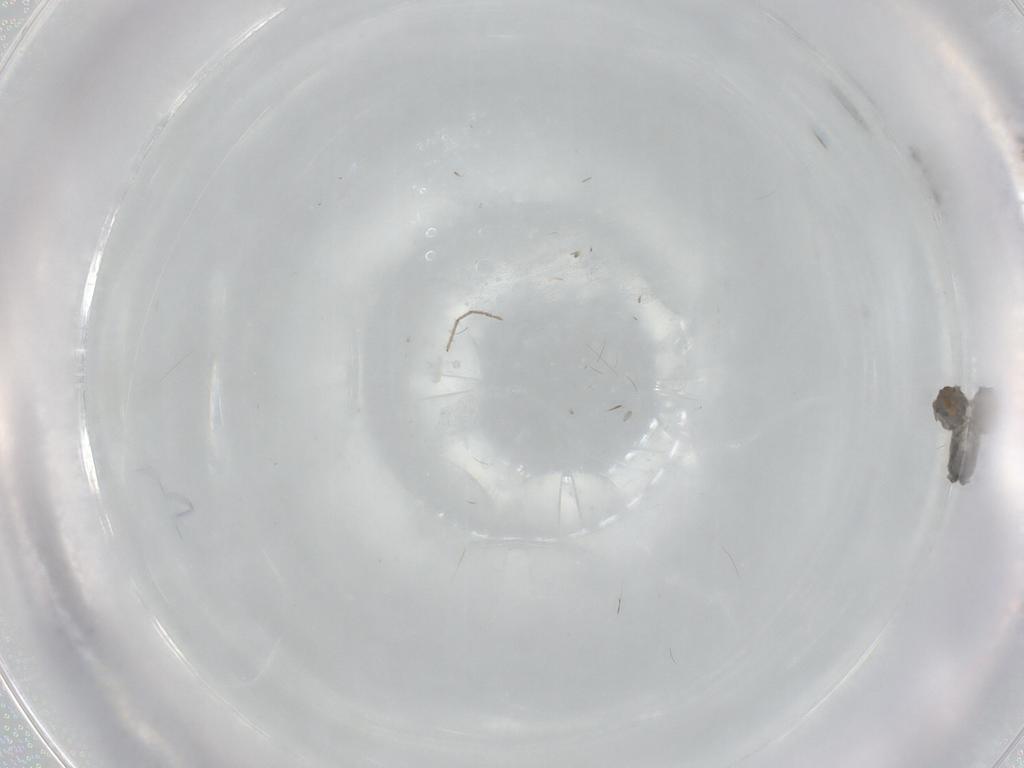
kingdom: Animalia
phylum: Arthropoda
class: Insecta
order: Diptera
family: Cecidomyiidae
